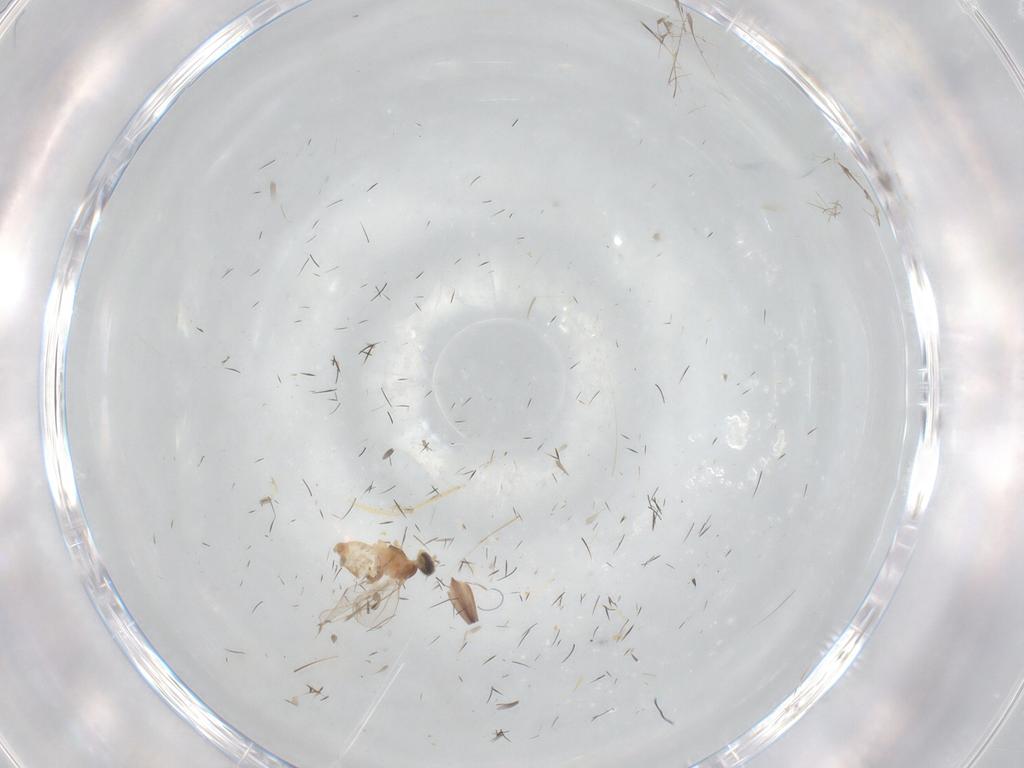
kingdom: Animalia
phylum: Arthropoda
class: Insecta
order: Diptera
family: Cecidomyiidae
